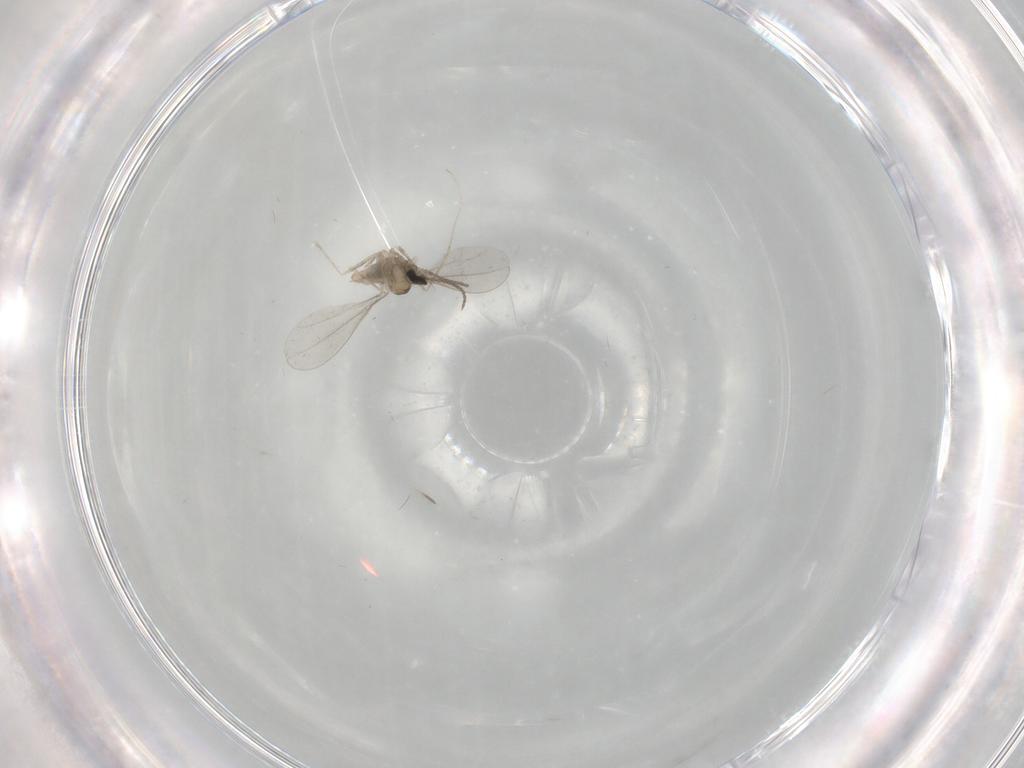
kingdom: Animalia
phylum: Arthropoda
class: Insecta
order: Diptera
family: Cecidomyiidae
